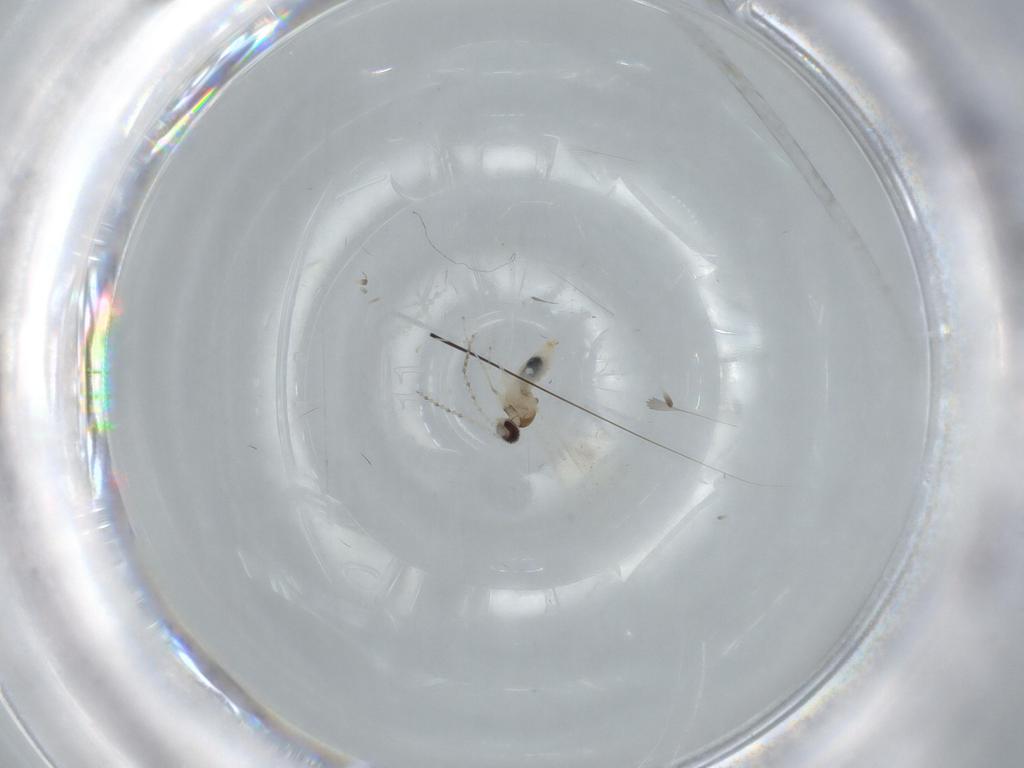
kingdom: Animalia
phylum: Arthropoda
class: Insecta
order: Diptera
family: Cecidomyiidae
